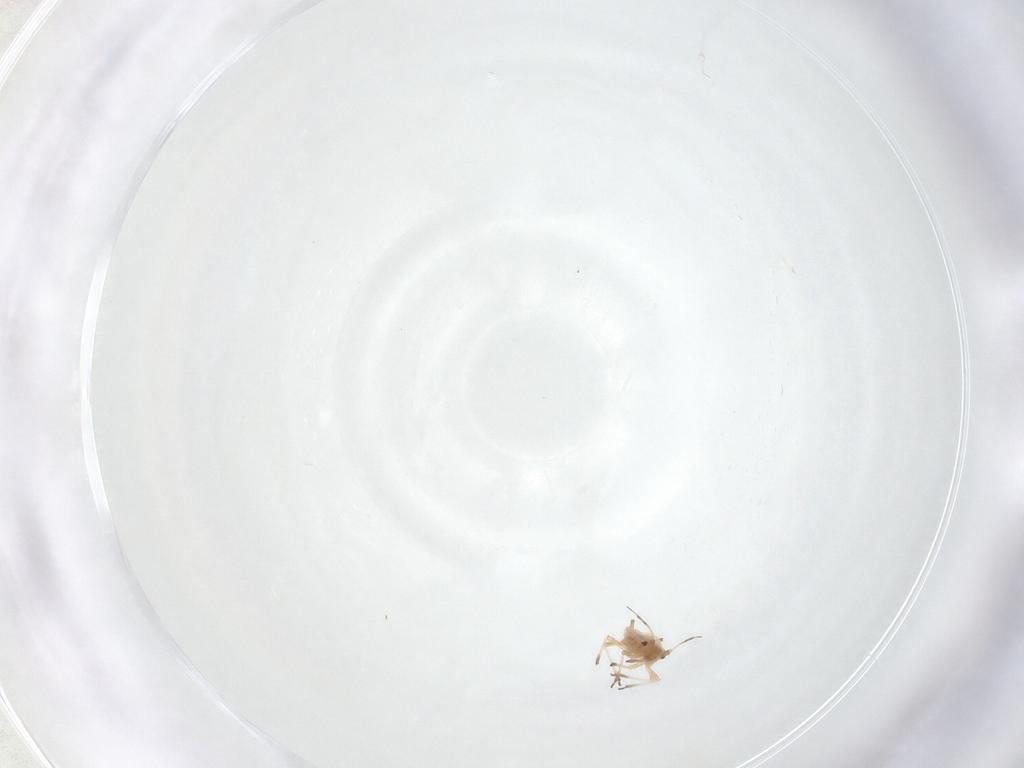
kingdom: Animalia
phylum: Arthropoda
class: Insecta
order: Hemiptera
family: Aphididae
